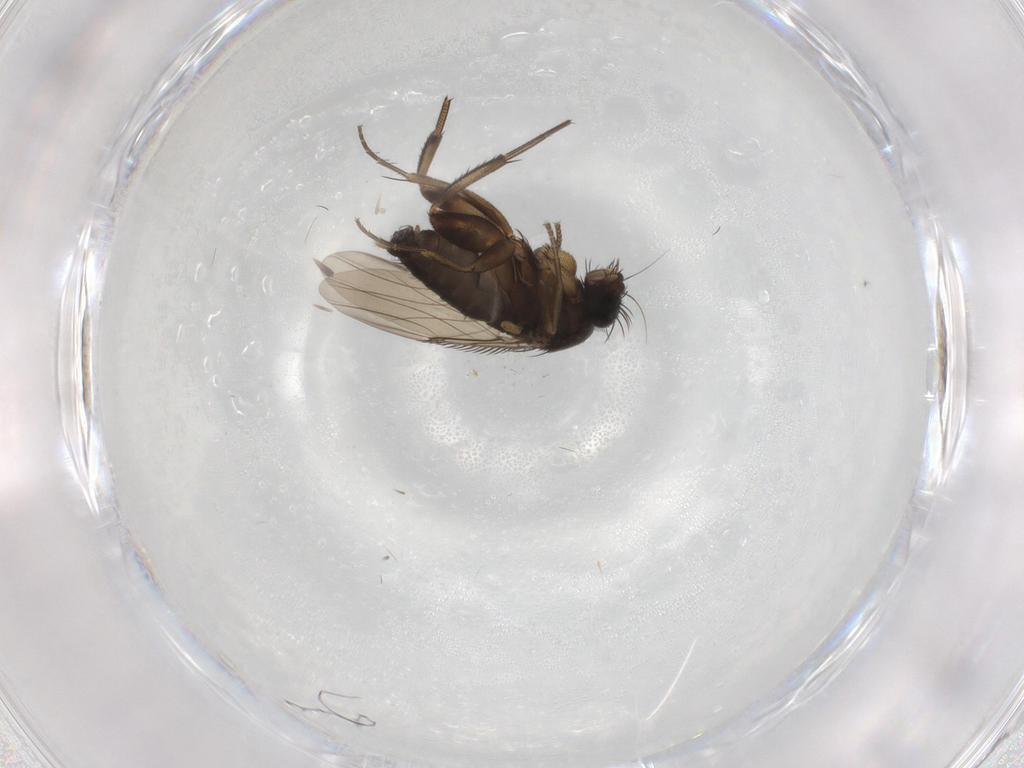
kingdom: Animalia
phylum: Arthropoda
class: Insecta
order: Diptera
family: Phoridae
